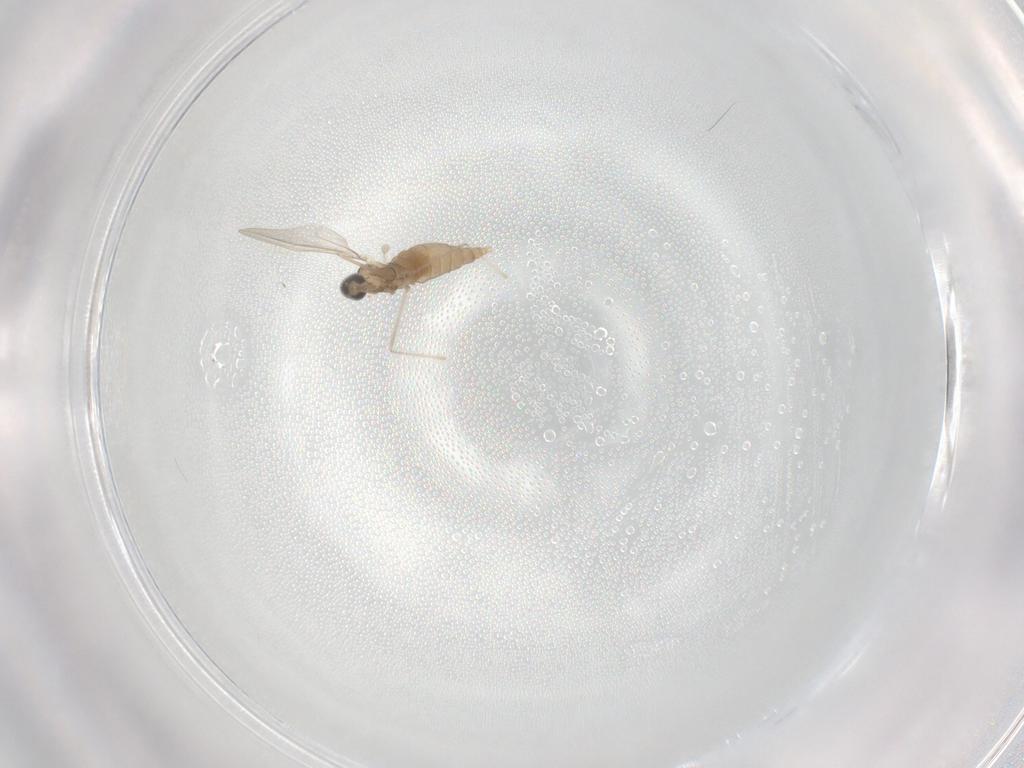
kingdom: Animalia
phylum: Arthropoda
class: Insecta
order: Diptera
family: Cecidomyiidae
